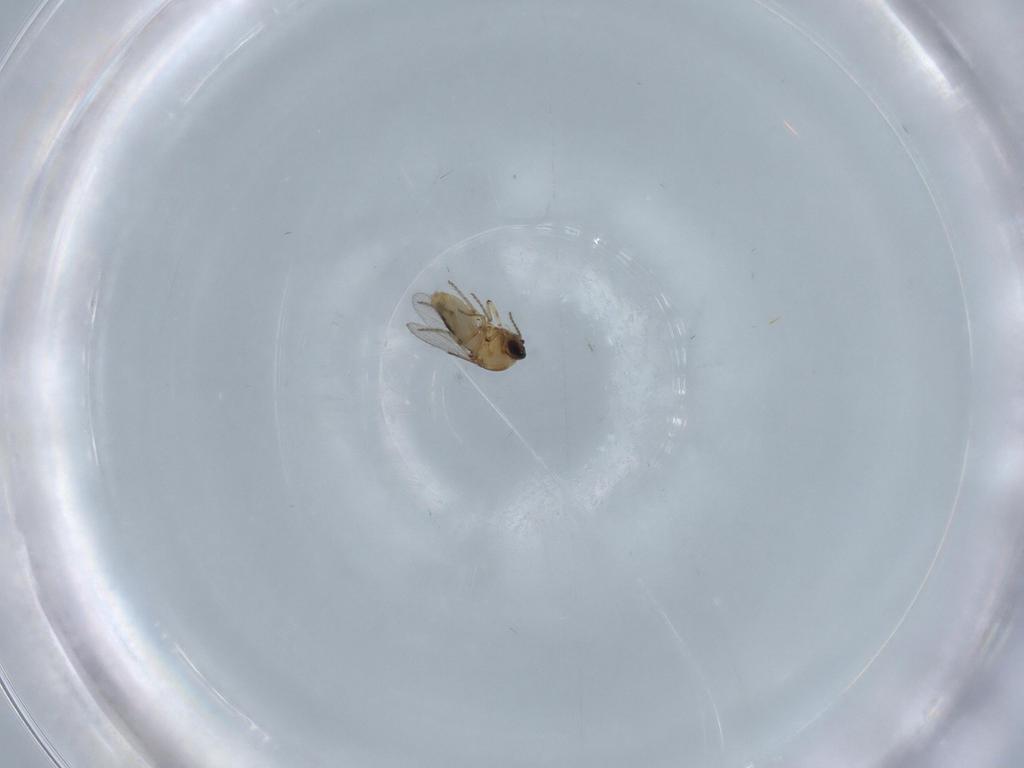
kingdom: Animalia
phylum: Arthropoda
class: Insecta
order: Diptera
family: Ceratopogonidae
